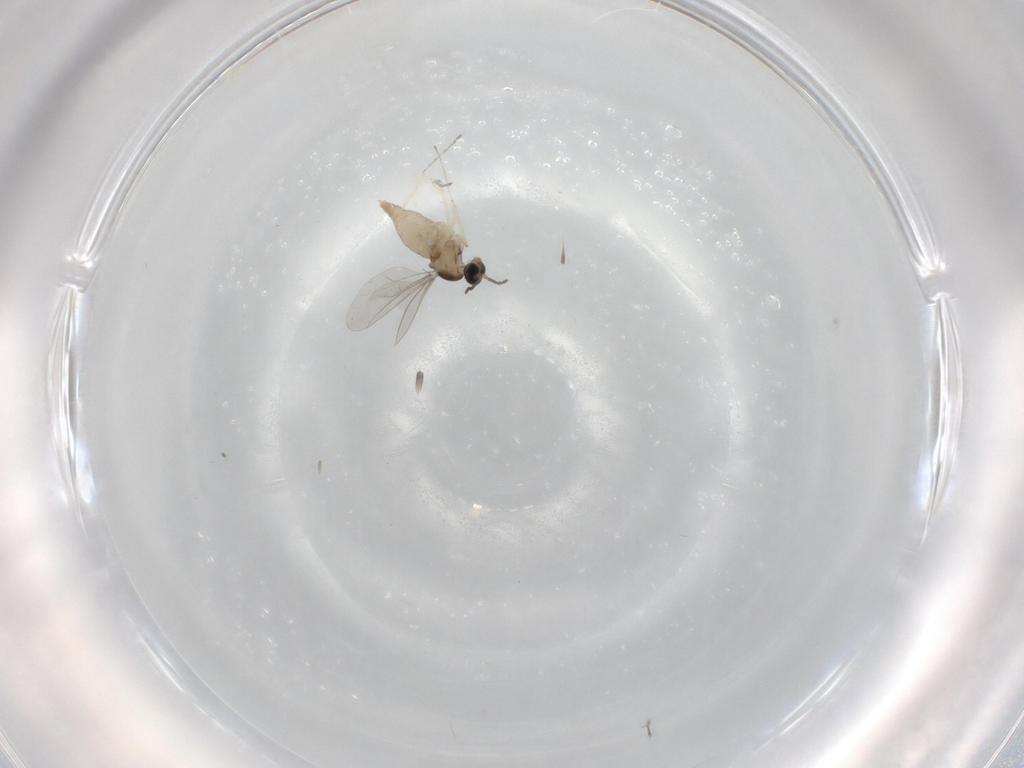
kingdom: Animalia
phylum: Arthropoda
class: Insecta
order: Diptera
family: Cecidomyiidae
